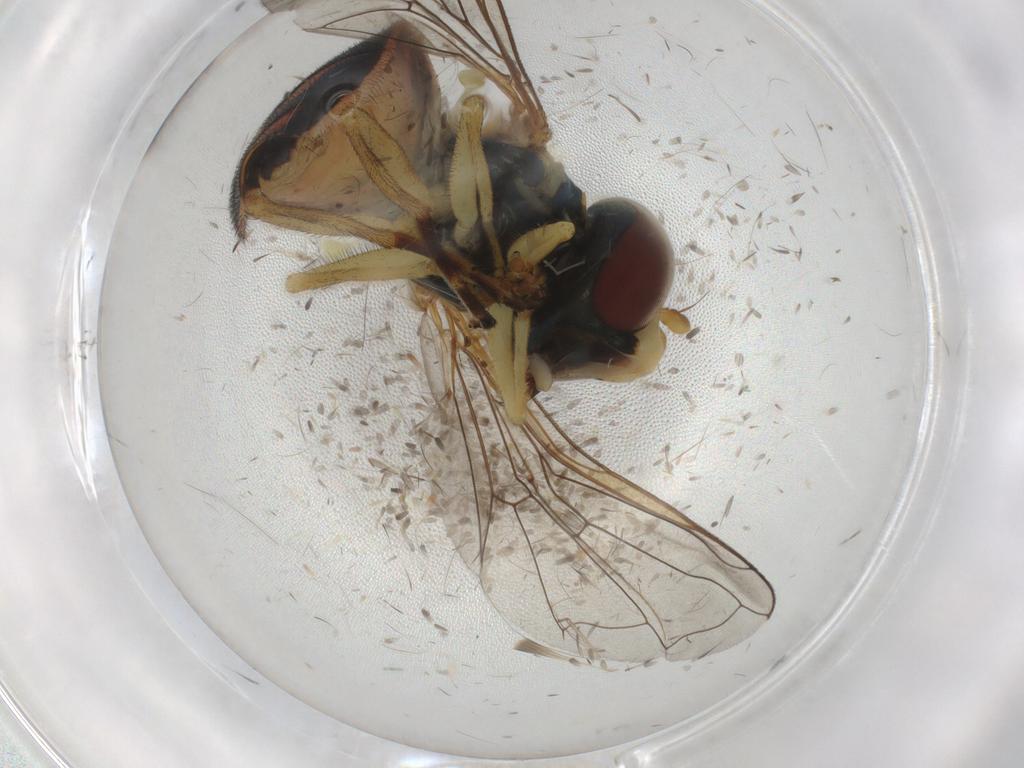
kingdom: Animalia
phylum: Arthropoda
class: Insecta
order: Diptera
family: Syrphidae
